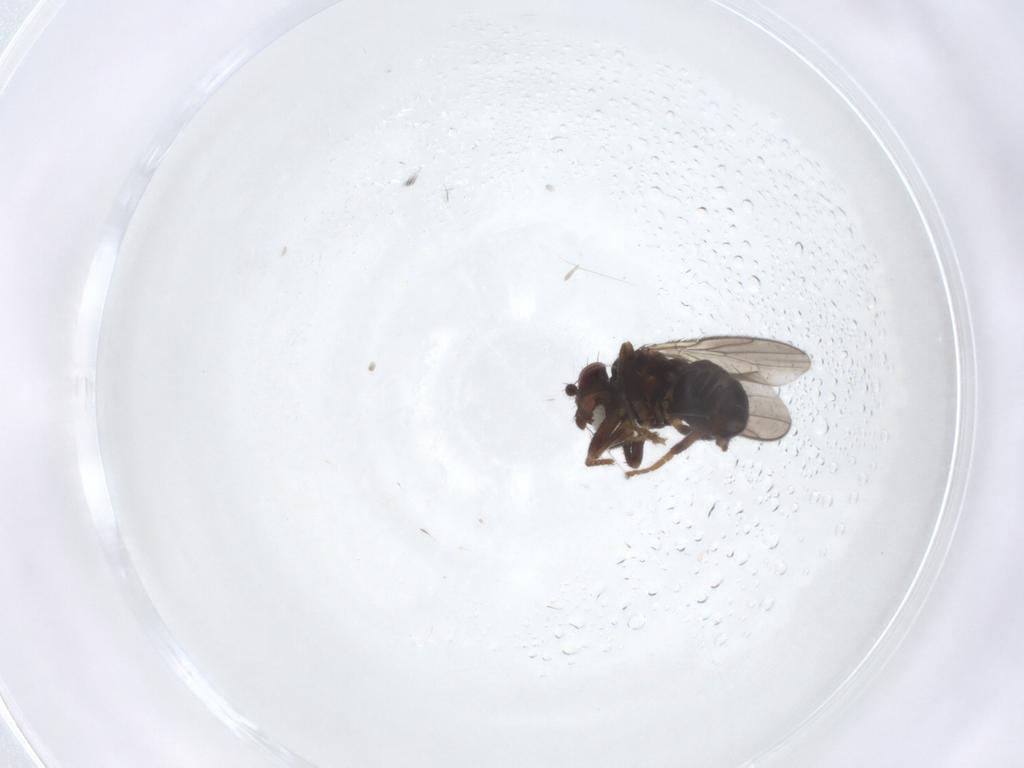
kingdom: Animalia
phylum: Arthropoda
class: Insecta
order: Diptera
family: Sphaeroceridae
